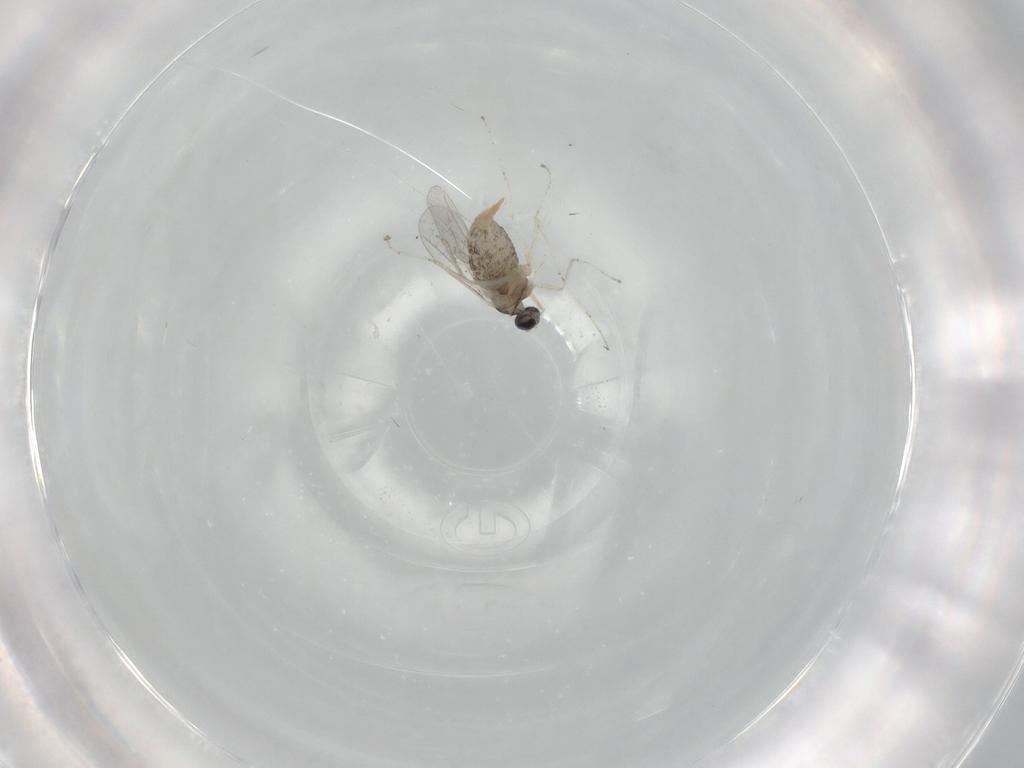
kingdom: Animalia
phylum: Arthropoda
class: Insecta
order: Diptera
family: Cecidomyiidae
